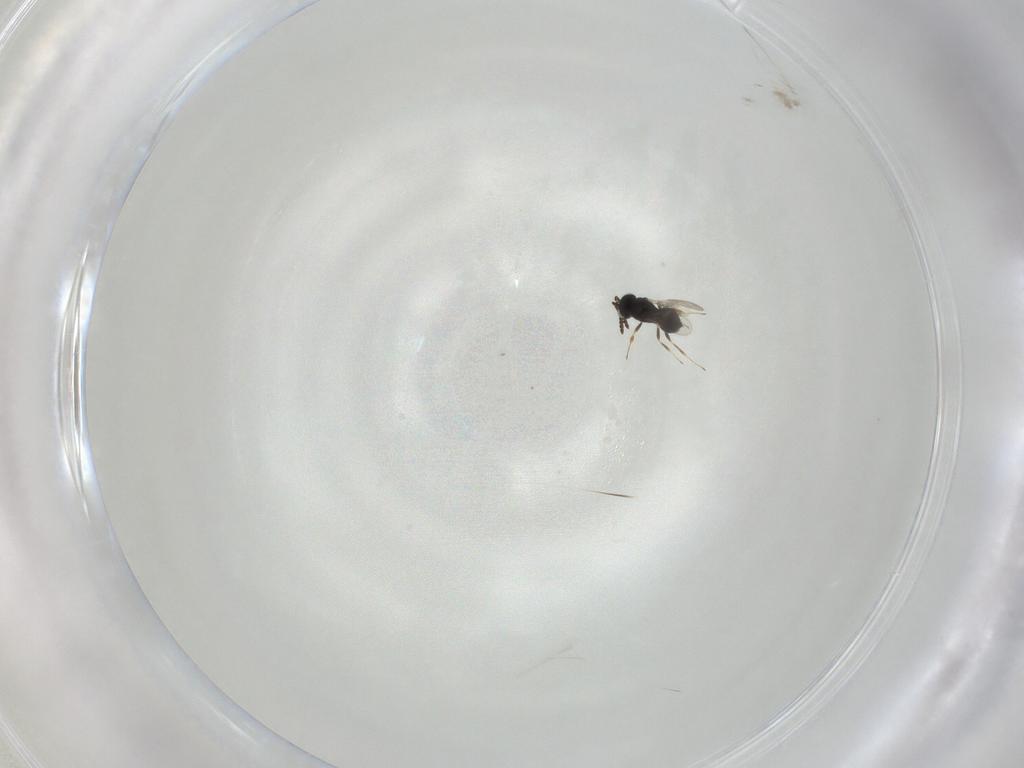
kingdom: Animalia
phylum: Arthropoda
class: Insecta
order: Hymenoptera
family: Scelionidae
